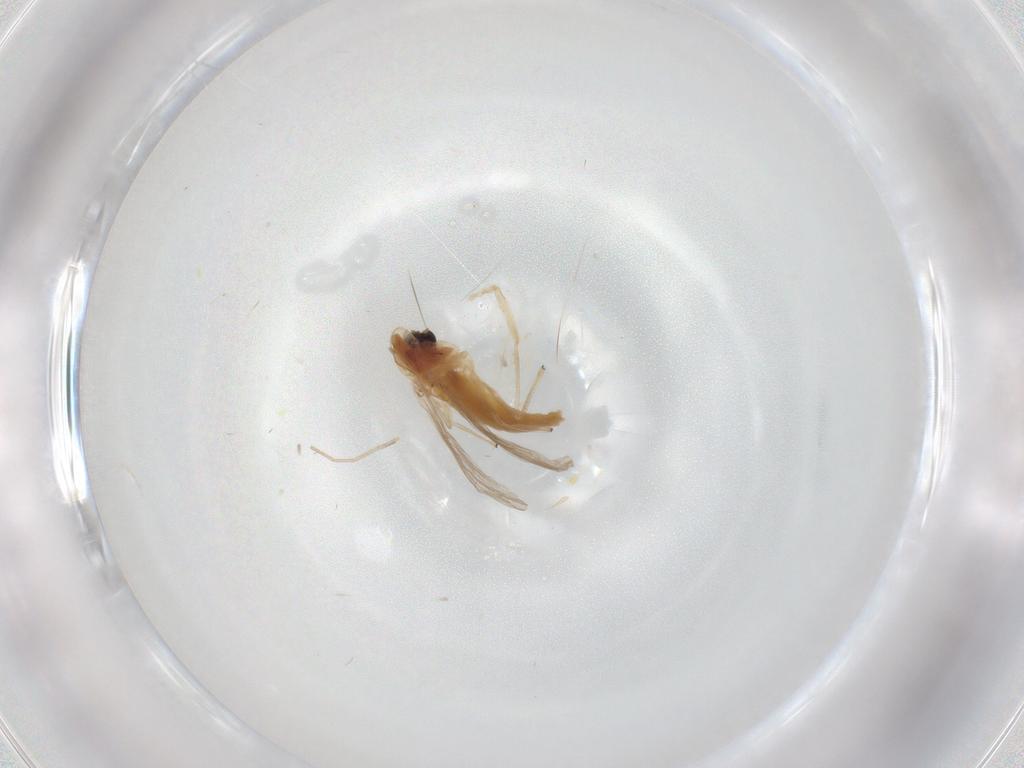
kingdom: Animalia
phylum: Arthropoda
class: Insecta
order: Diptera
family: Chironomidae
